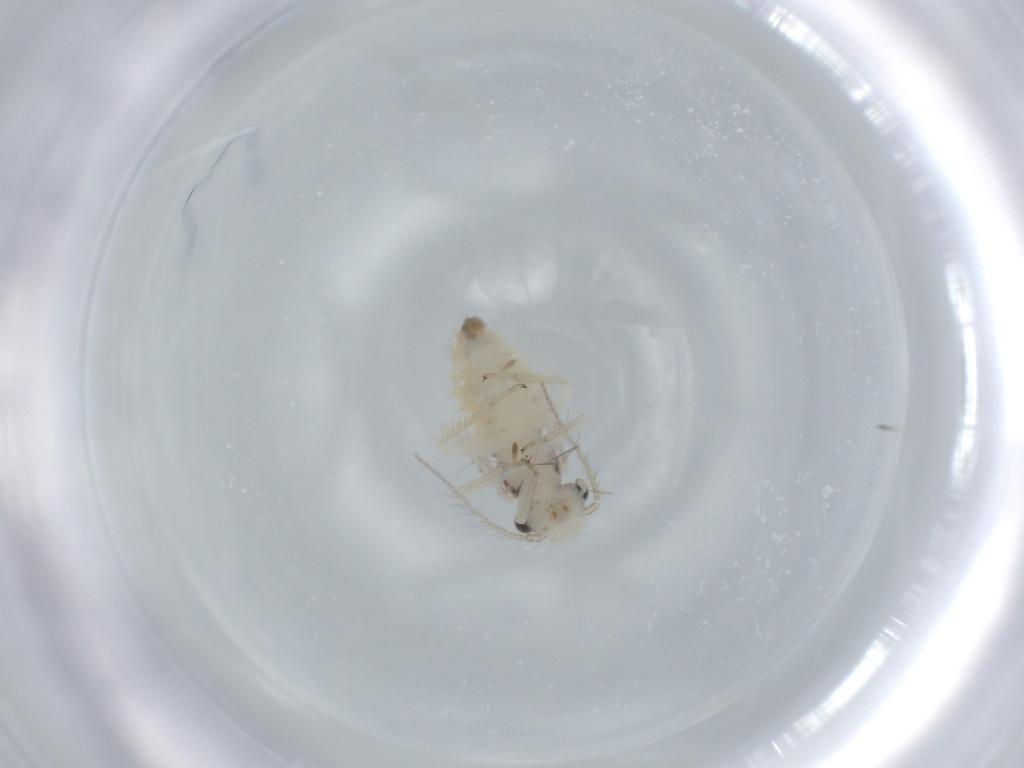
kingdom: Animalia
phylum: Arthropoda
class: Insecta
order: Psocodea
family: Pseudocaeciliidae
